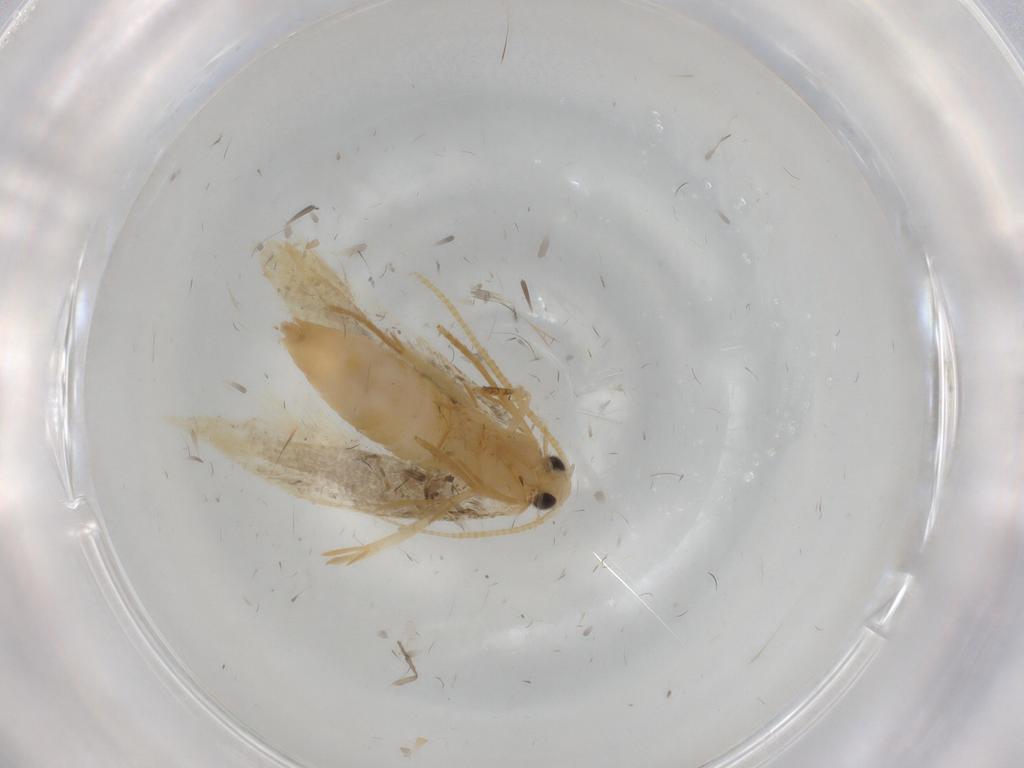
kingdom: Animalia
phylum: Arthropoda
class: Insecta
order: Lepidoptera
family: Tineidae
